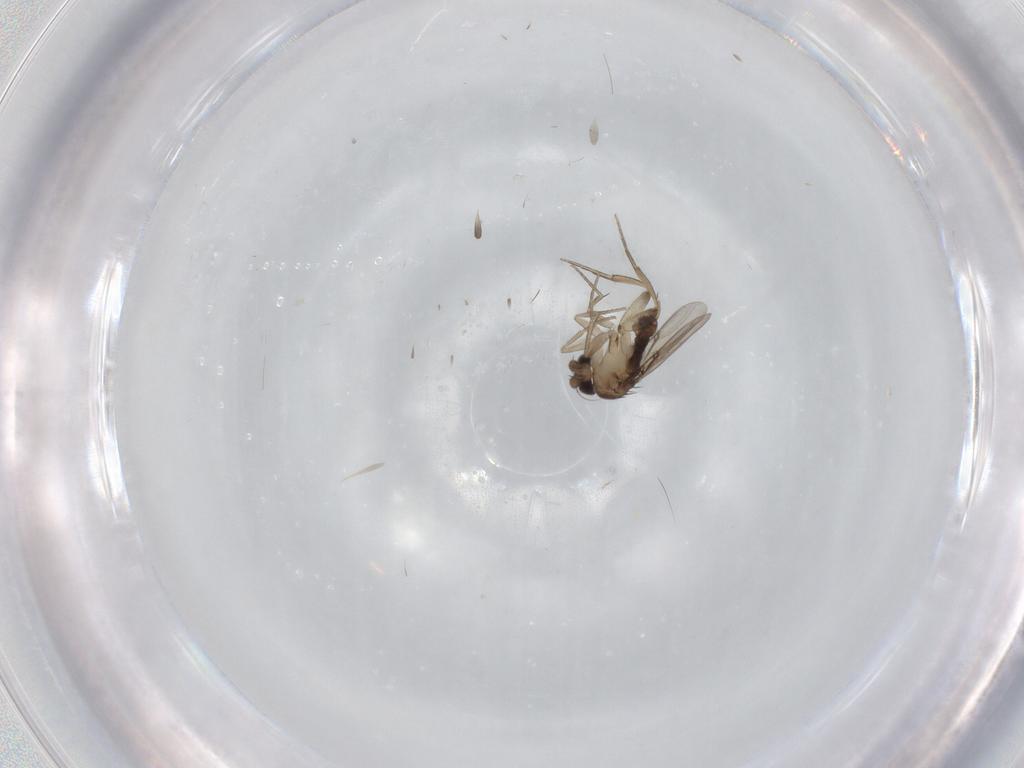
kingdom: Animalia
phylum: Arthropoda
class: Insecta
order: Diptera
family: Phoridae
